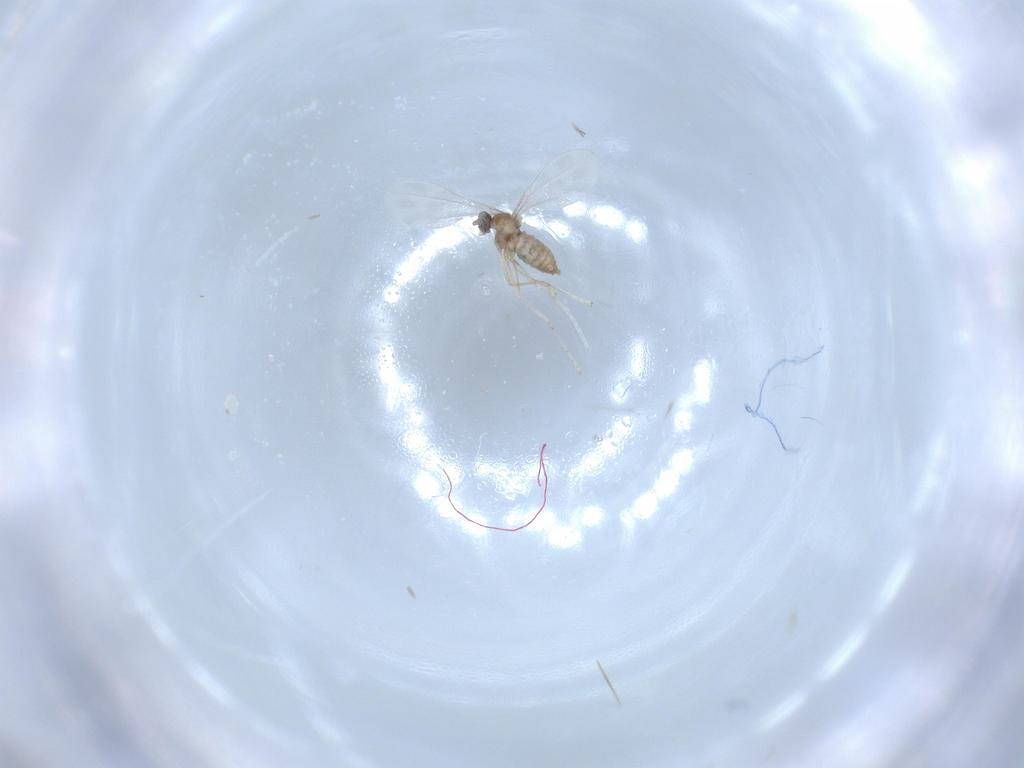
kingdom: Animalia
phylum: Arthropoda
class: Insecta
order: Diptera
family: Cecidomyiidae
